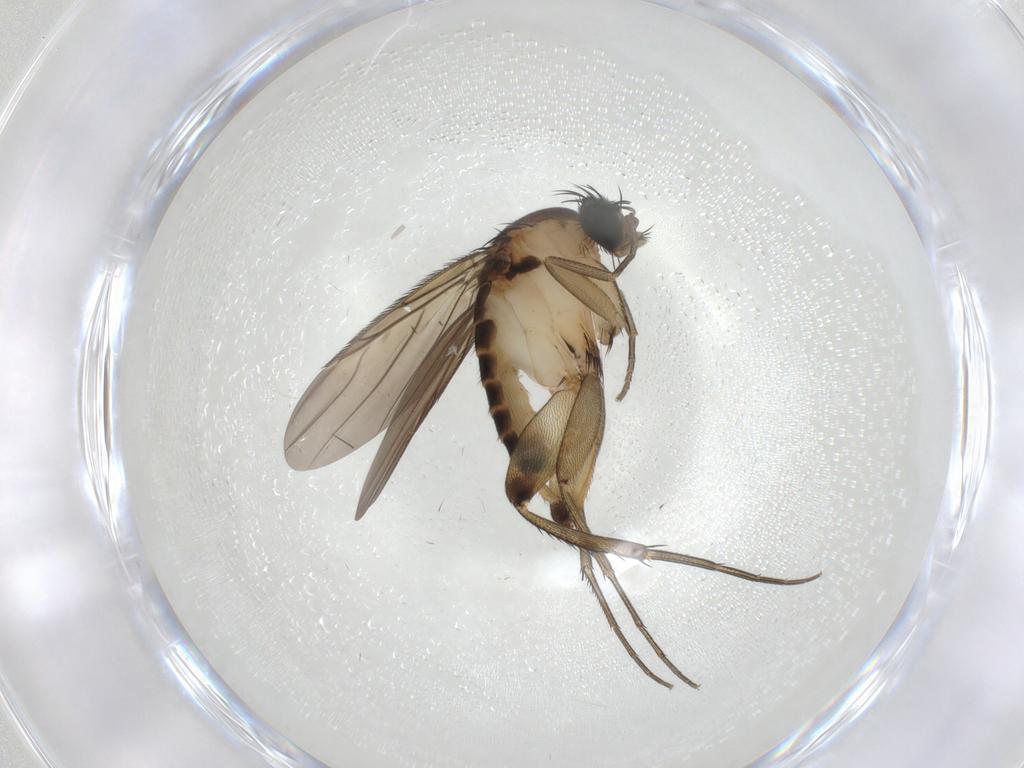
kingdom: Animalia
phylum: Arthropoda
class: Insecta
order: Diptera
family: Phoridae
